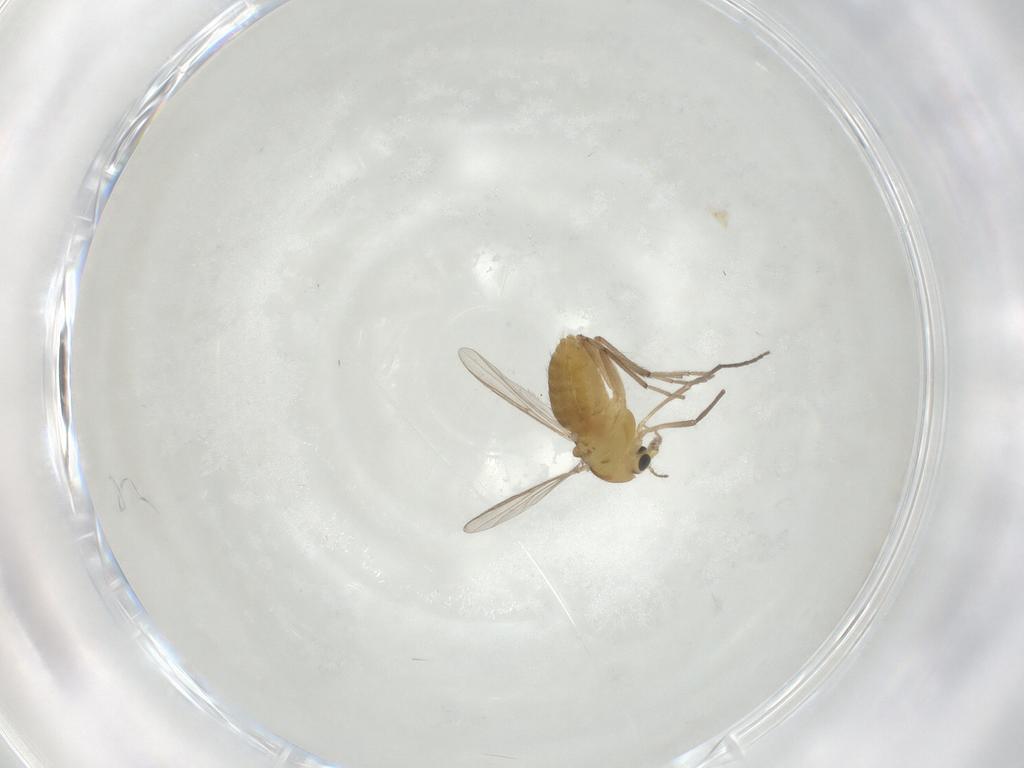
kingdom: Animalia
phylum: Arthropoda
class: Insecta
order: Diptera
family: Chironomidae
